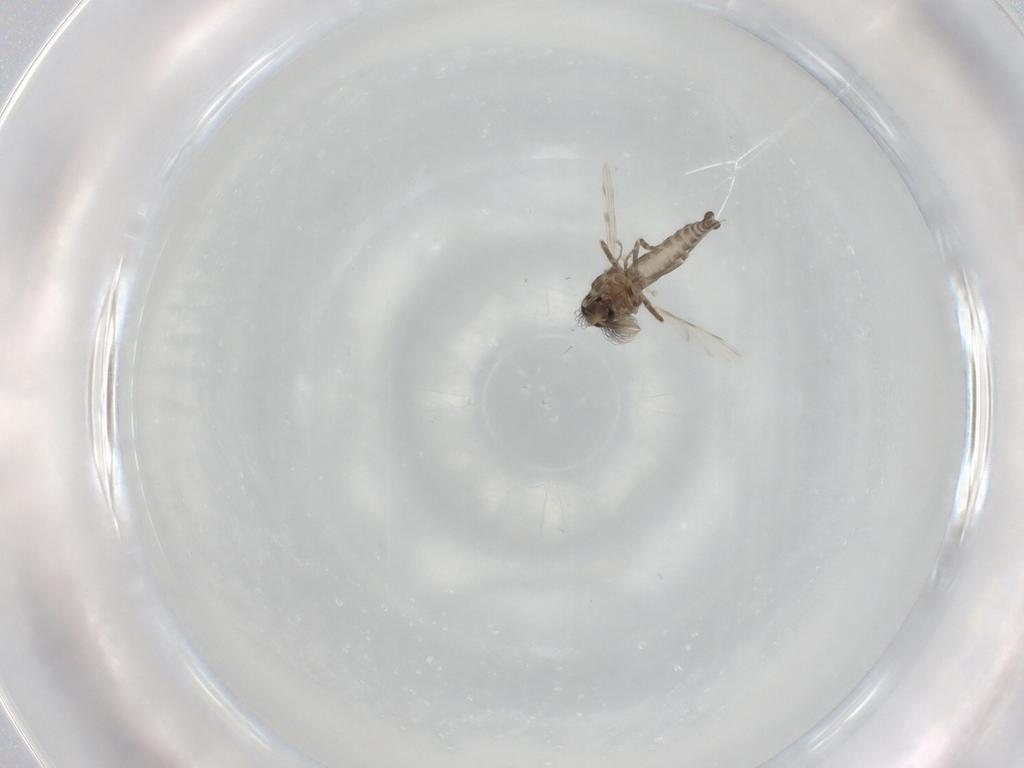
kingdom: Animalia
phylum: Arthropoda
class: Insecta
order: Diptera
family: Ceratopogonidae
